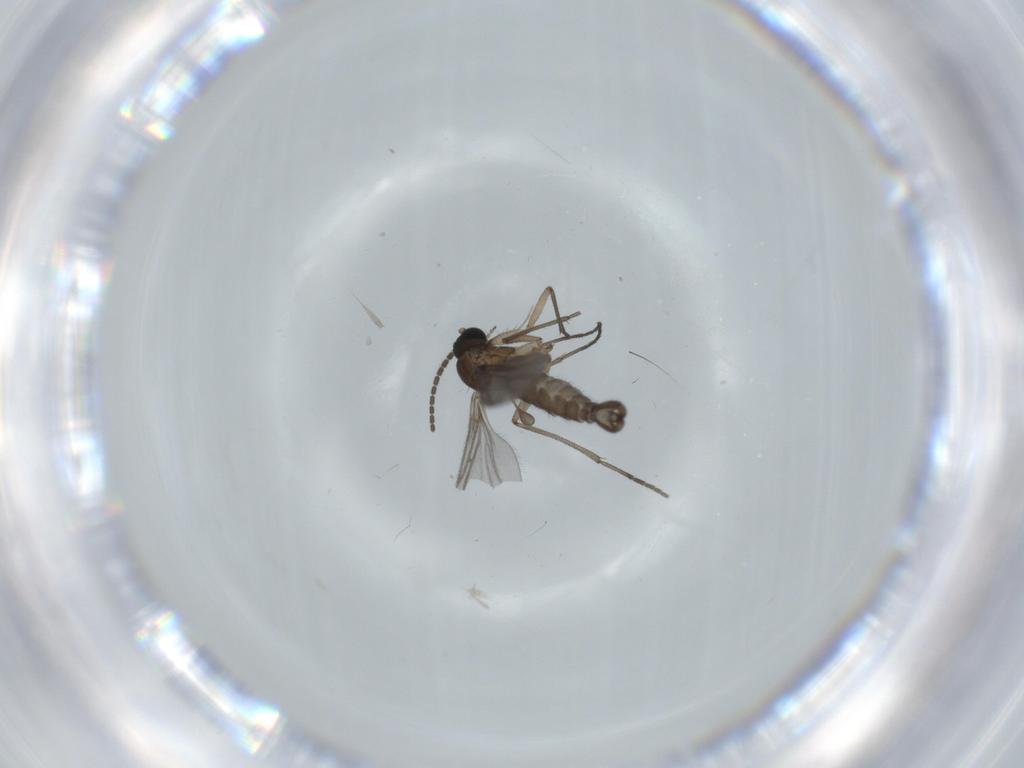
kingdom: Animalia
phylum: Arthropoda
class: Insecta
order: Diptera
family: Sciaridae
